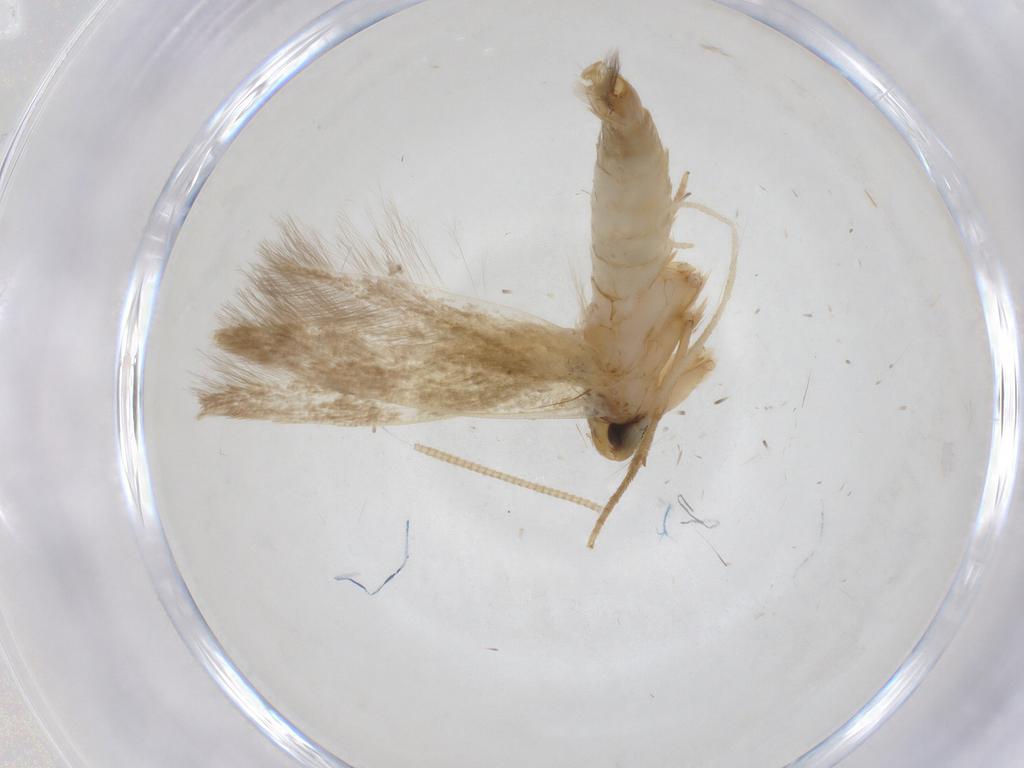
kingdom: Animalia
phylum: Arthropoda
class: Insecta
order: Lepidoptera
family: Tineidae
